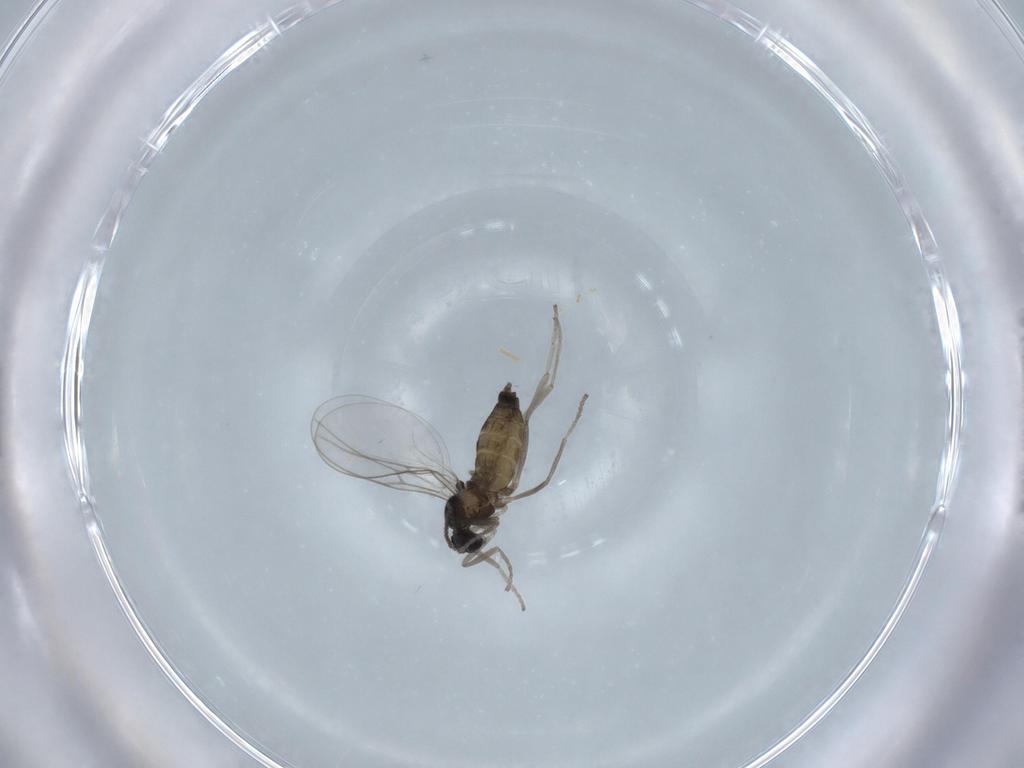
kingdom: Animalia
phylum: Arthropoda
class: Insecta
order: Diptera
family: Cecidomyiidae
